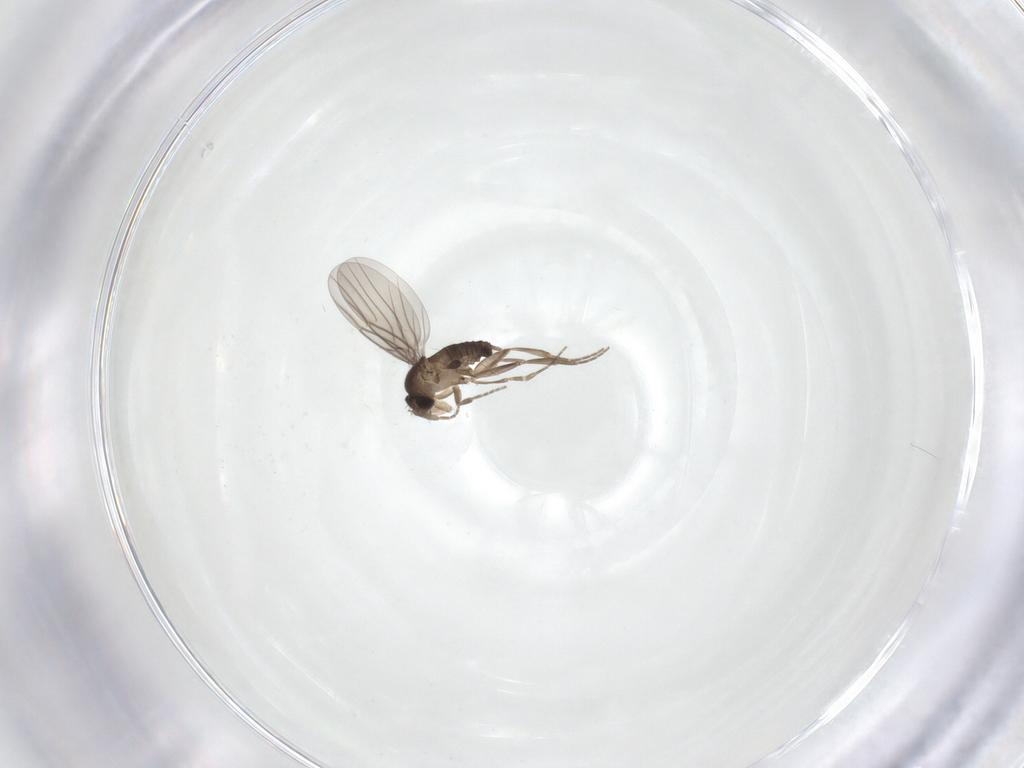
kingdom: Animalia
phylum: Arthropoda
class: Insecta
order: Diptera
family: Phoridae
